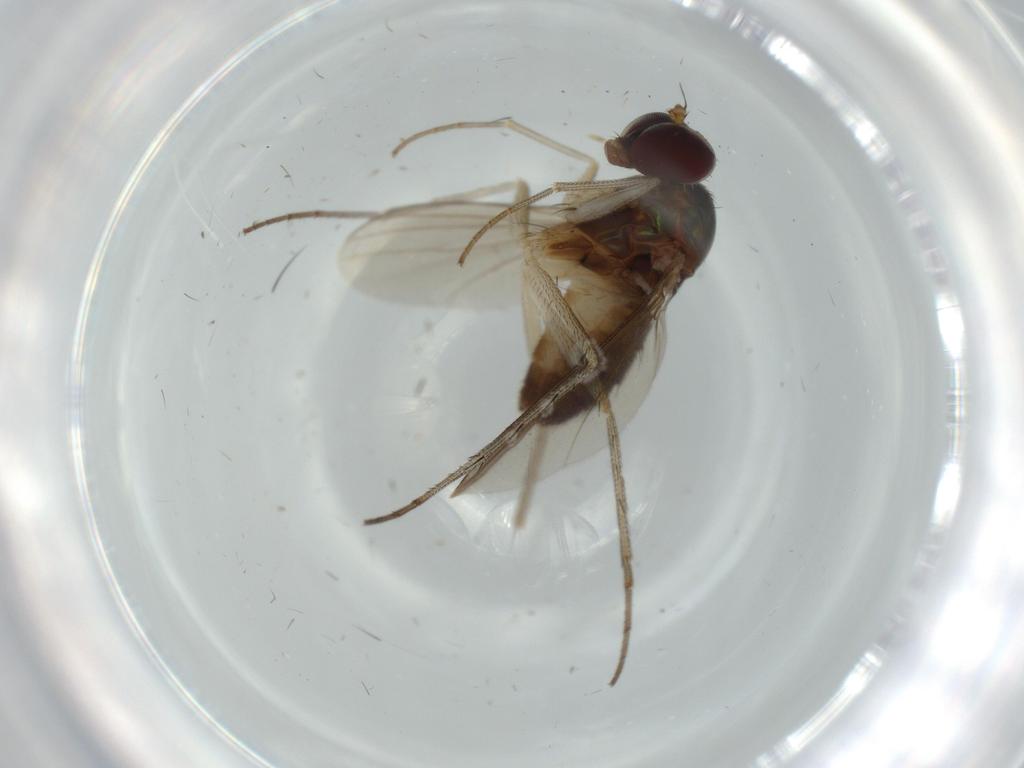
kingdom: Animalia
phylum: Arthropoda
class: Insecta
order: Diptera
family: Dolichopodidae
